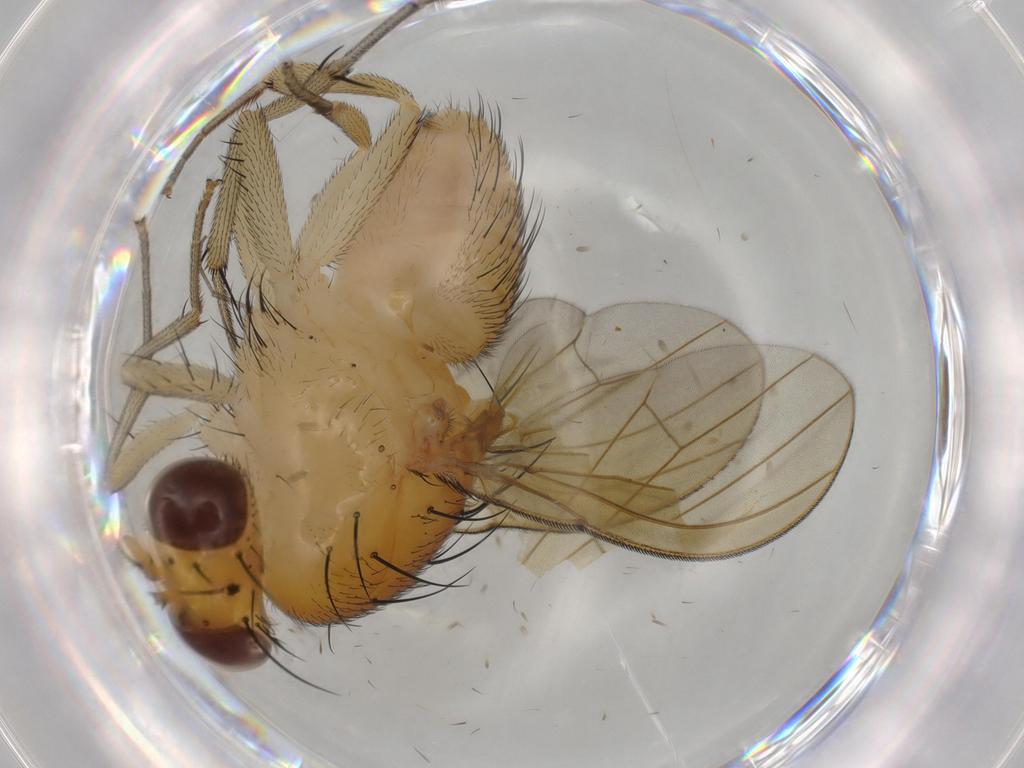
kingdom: Animalia
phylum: Arthropoda
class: Insecta
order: Diptera
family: Sciaridae
